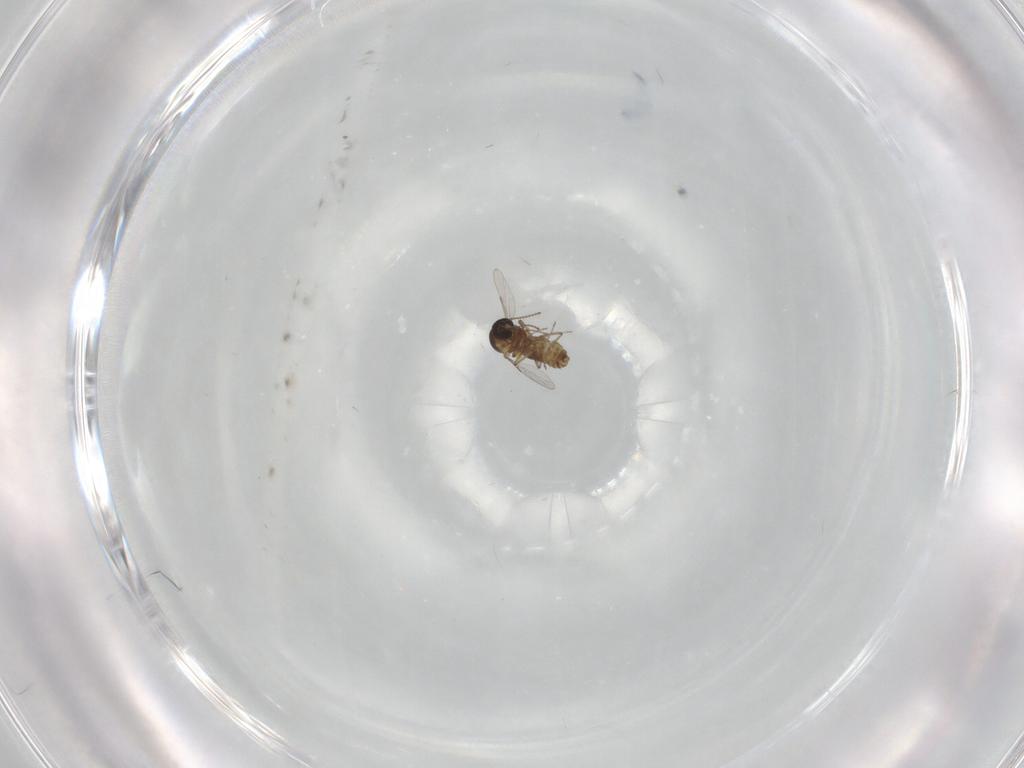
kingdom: Animalia
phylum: Arthropoda
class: Insecta
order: Diptera
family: Ceratopogonidae
